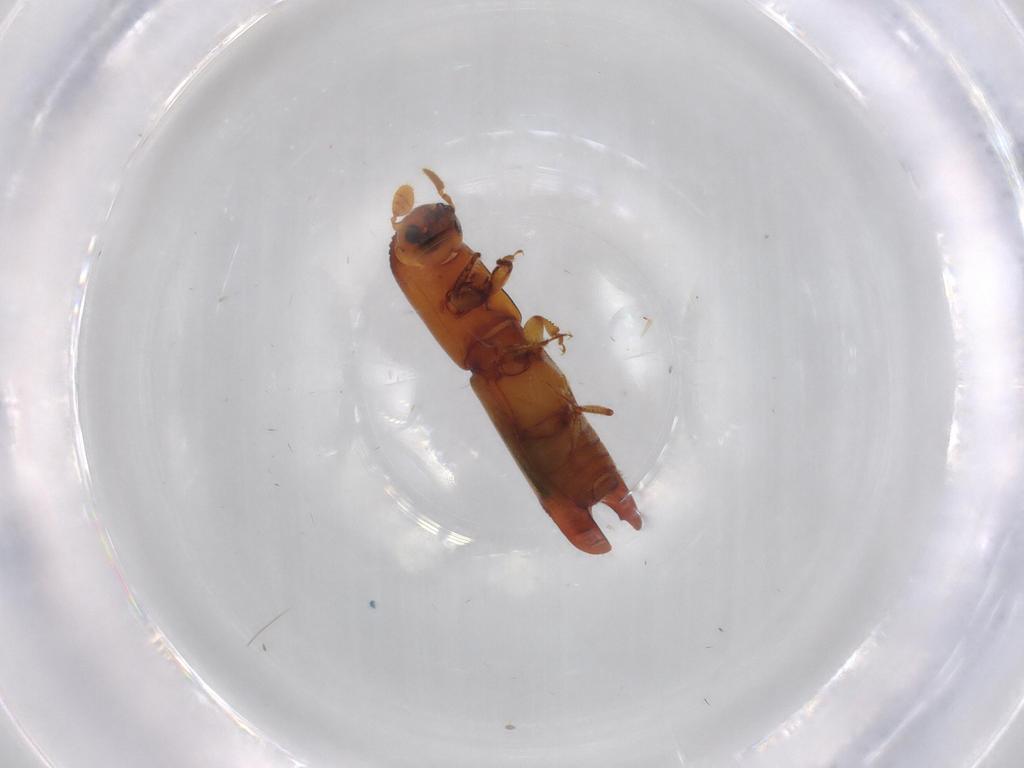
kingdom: Animalia
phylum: Arthropoda
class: Insecta
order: Coleoptera
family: Curculionidae
